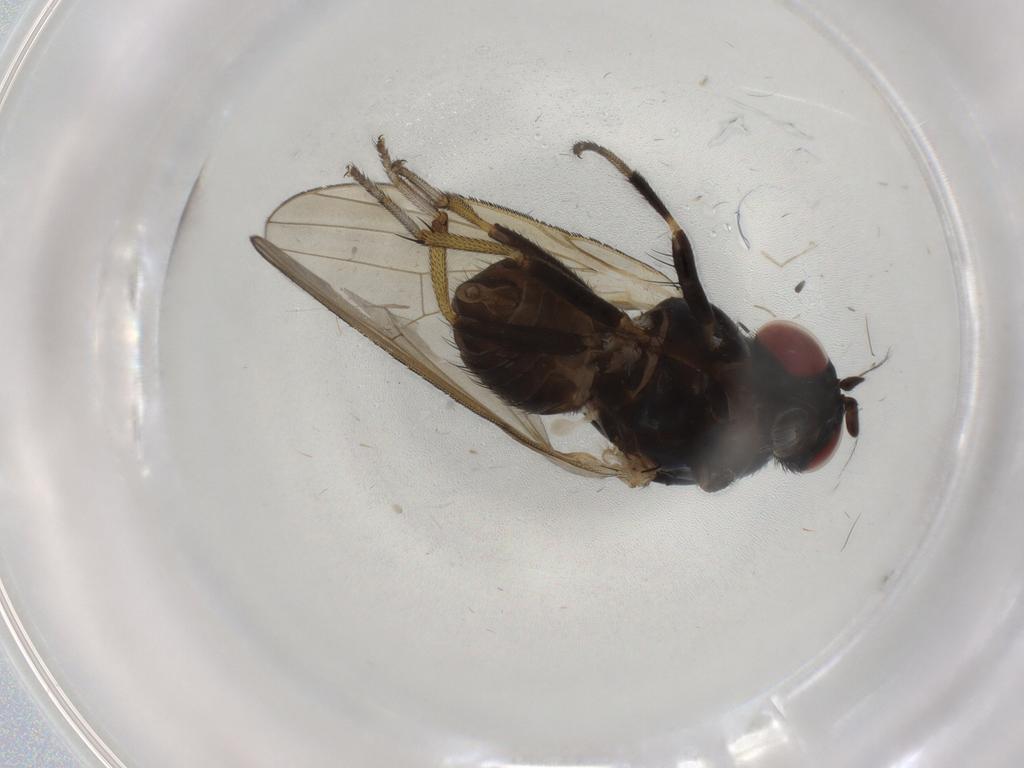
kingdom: Animalia
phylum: Arthropoda
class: Insecta
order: Diptera
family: Chironomidae
